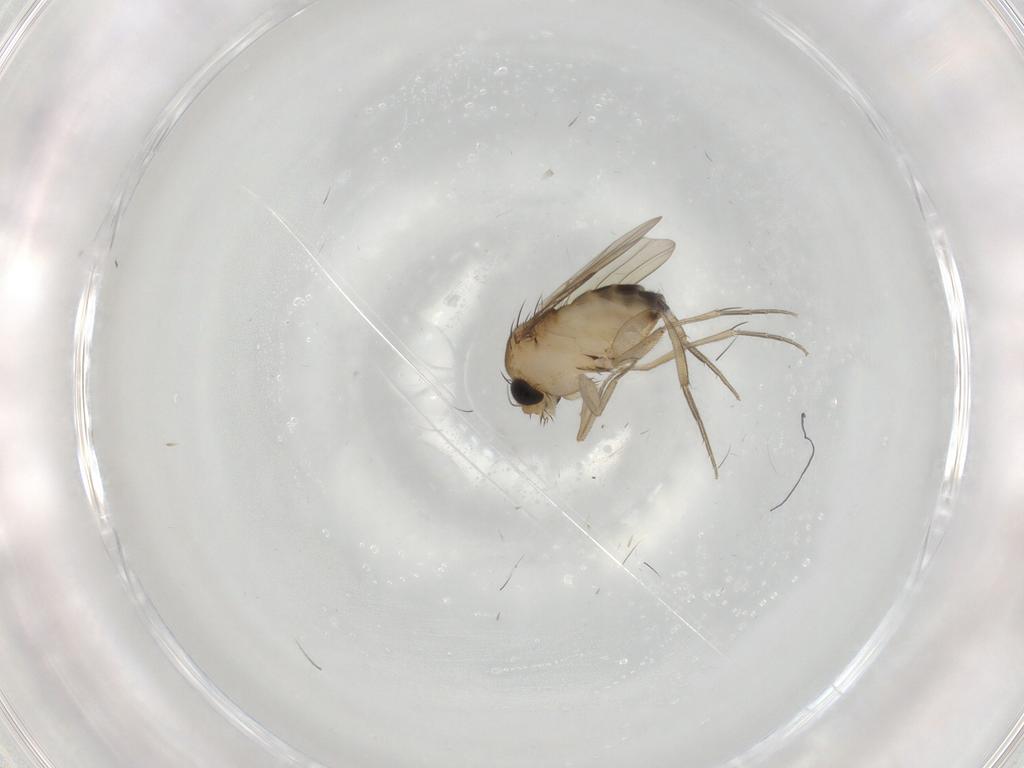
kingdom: Animalia
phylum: Arthropoda
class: Insecta
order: Diptera
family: Phoridae
